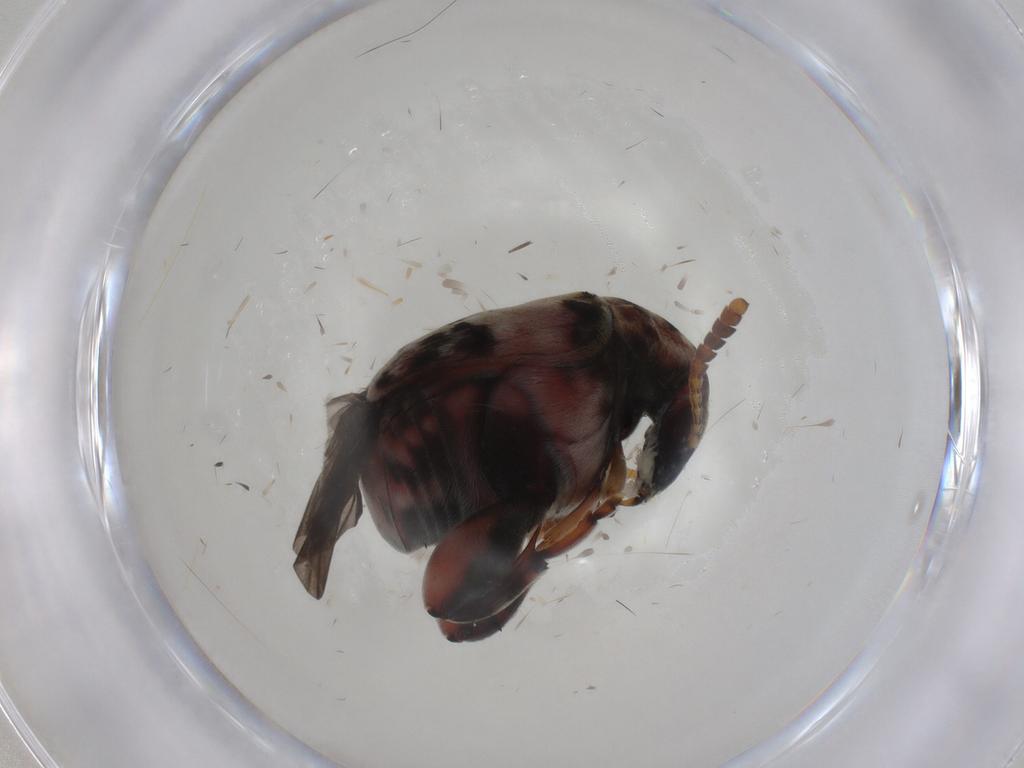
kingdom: Animalia
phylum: Arthropoda
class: Insecta
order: Coleoptera
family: Chrysomelidae
